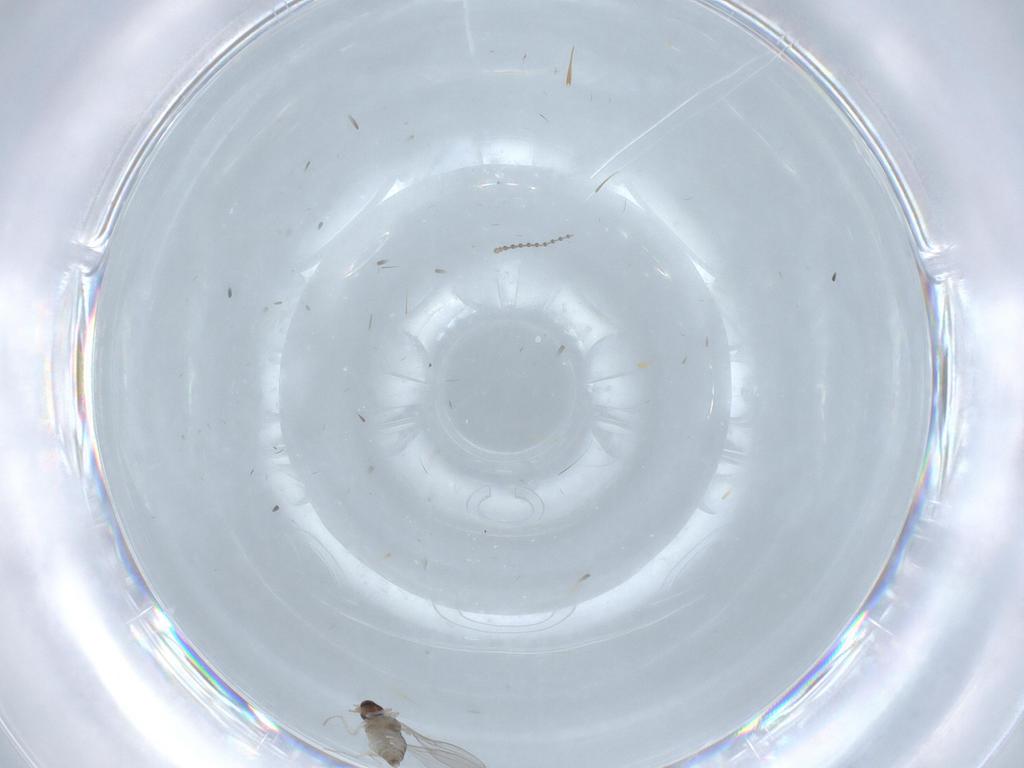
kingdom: Animalia
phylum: Arthropoda
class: Insecta
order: Diptera
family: Cecidomyiidae
